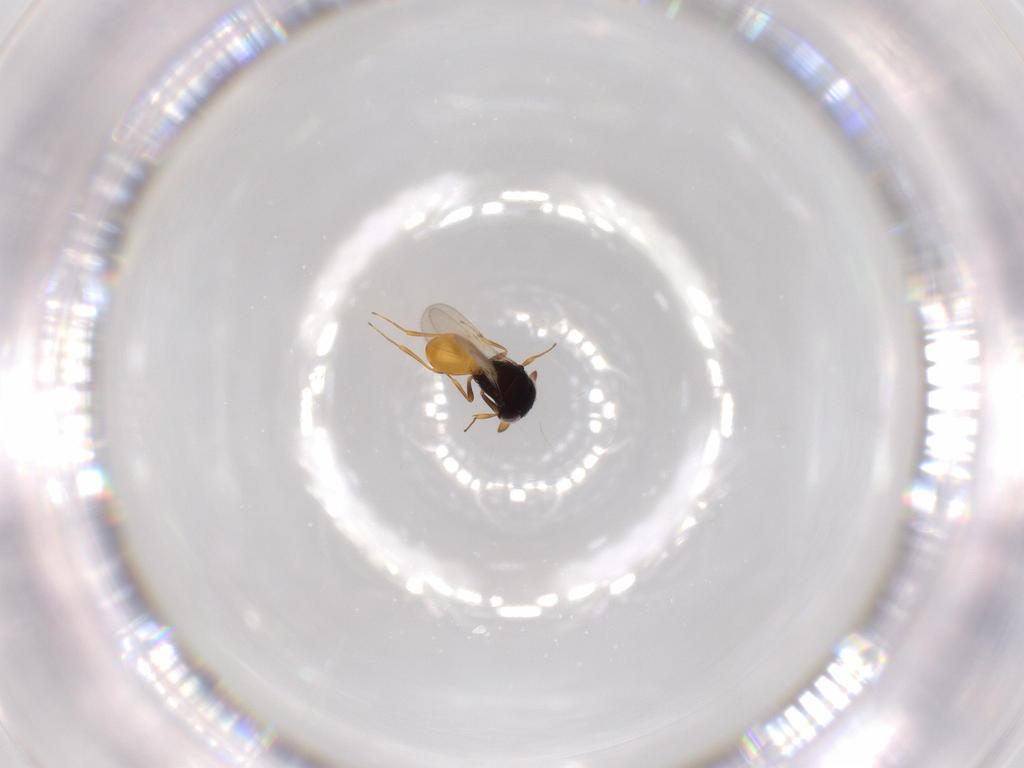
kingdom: Animalia
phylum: Arthropoda
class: Insecta
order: Hymenoptera
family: Scelionidae
